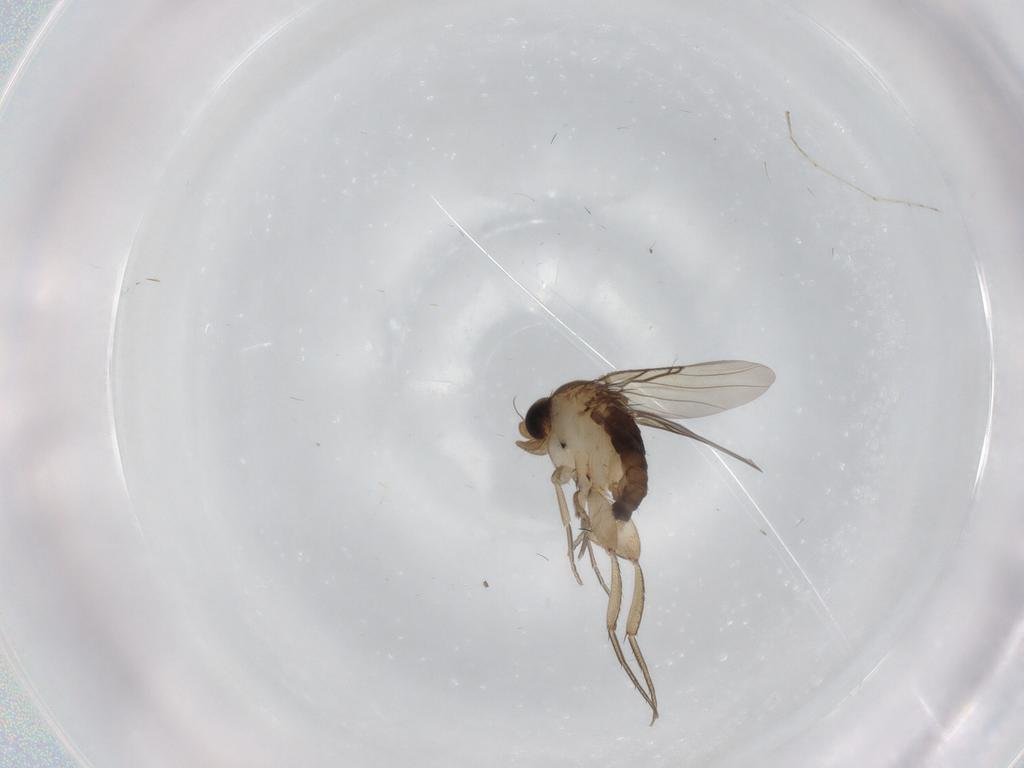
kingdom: Animalia
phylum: Arthropoda
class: Insecta
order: Diptera
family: Phoridae
